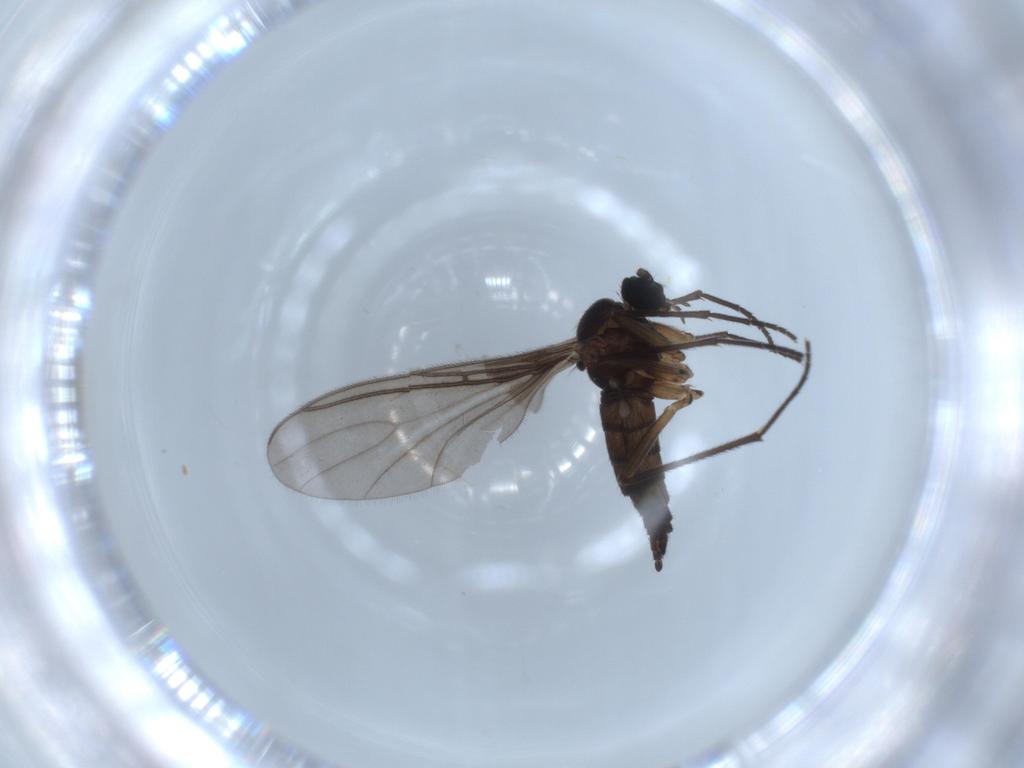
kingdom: Animalia
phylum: Arthropoda
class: Insecta
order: Diptera
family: Sciaridae
